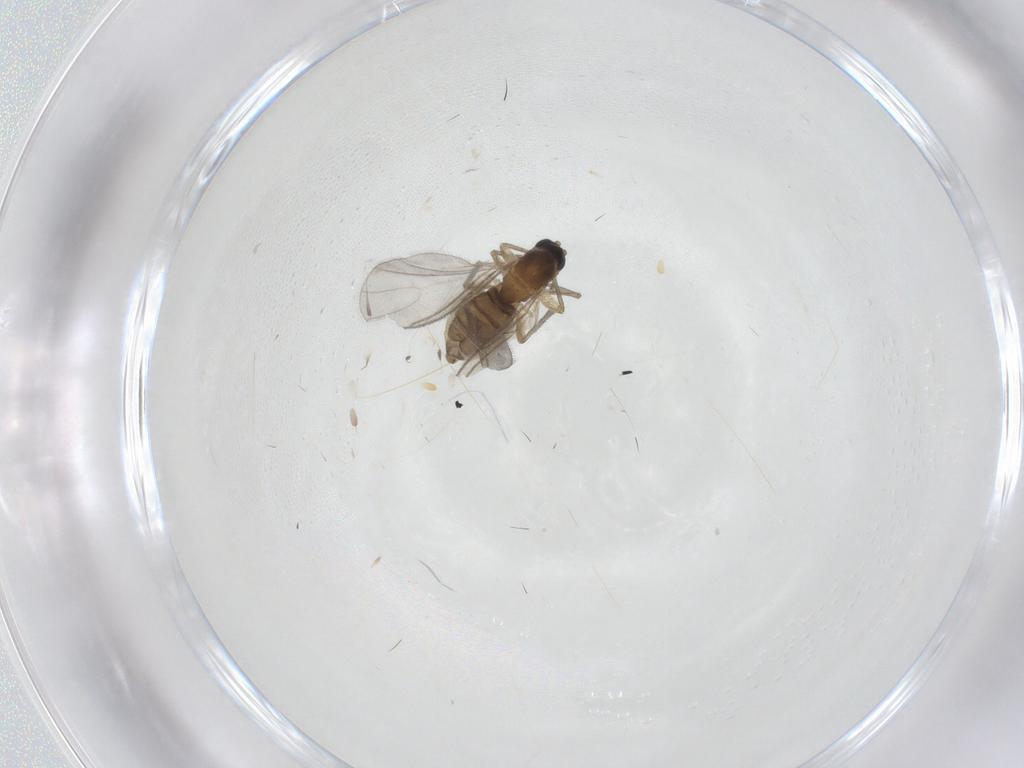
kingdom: Animalia
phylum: Arthropoda
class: Insecta
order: Diptera
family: Sciaridae
